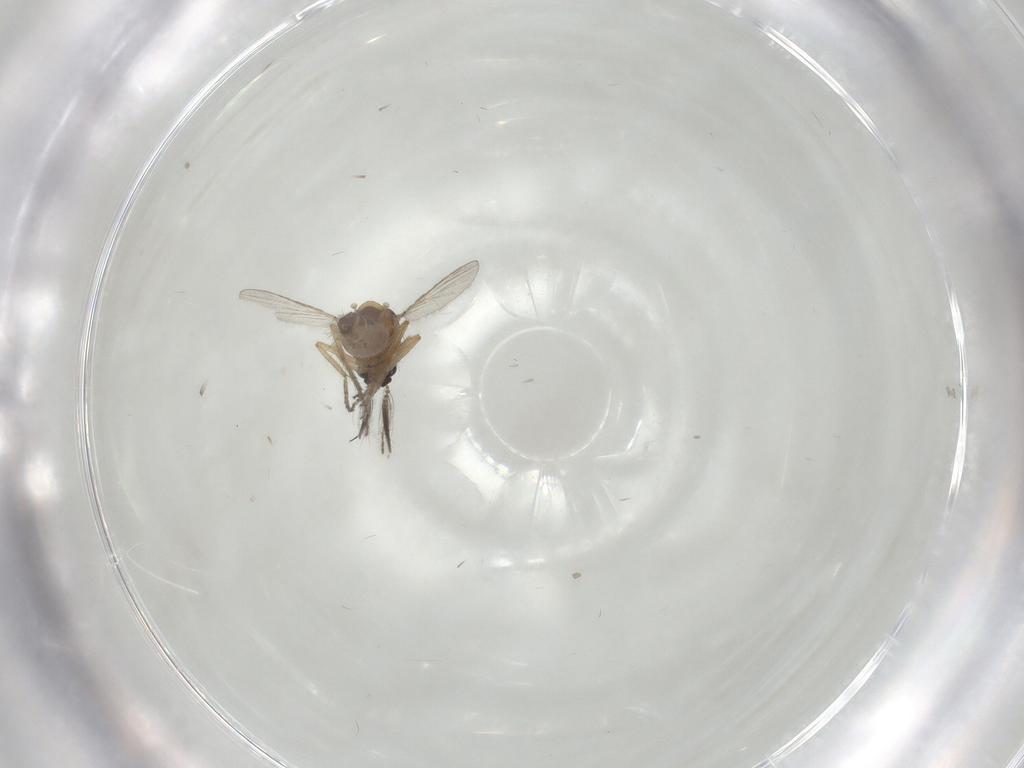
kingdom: Animalia
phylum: Arthropoda
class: Insecta
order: Diptera
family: Ceratopogonidae
